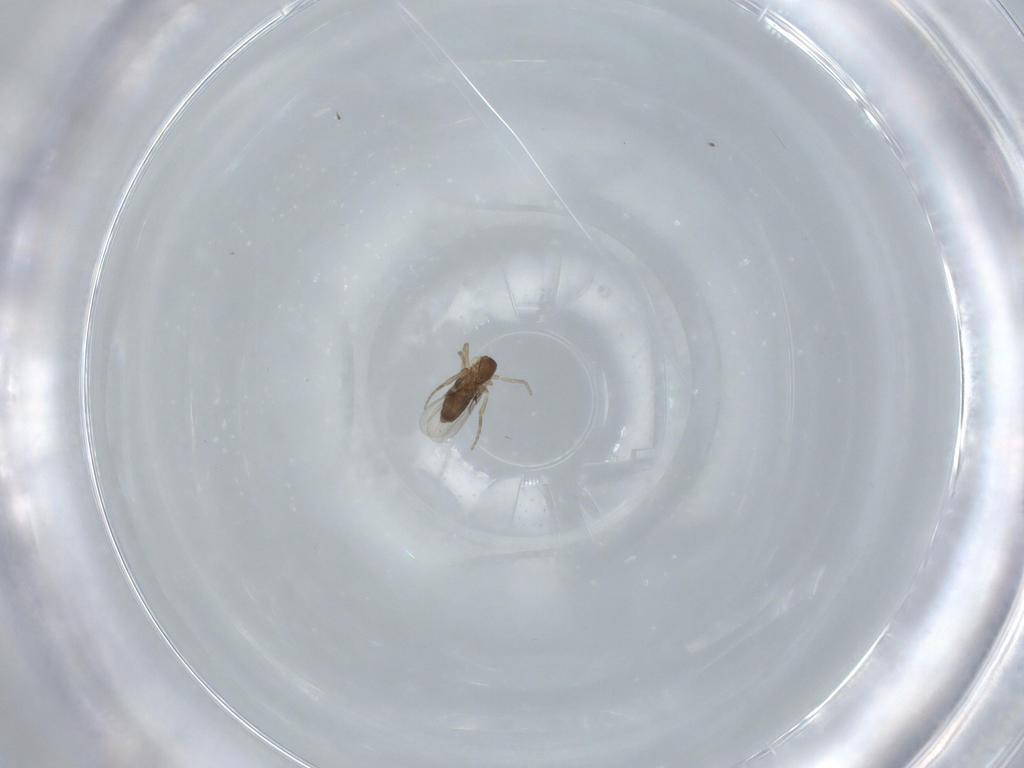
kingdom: Animalia
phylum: Arthropoda
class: Insecta
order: Diptera
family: Phoridae
